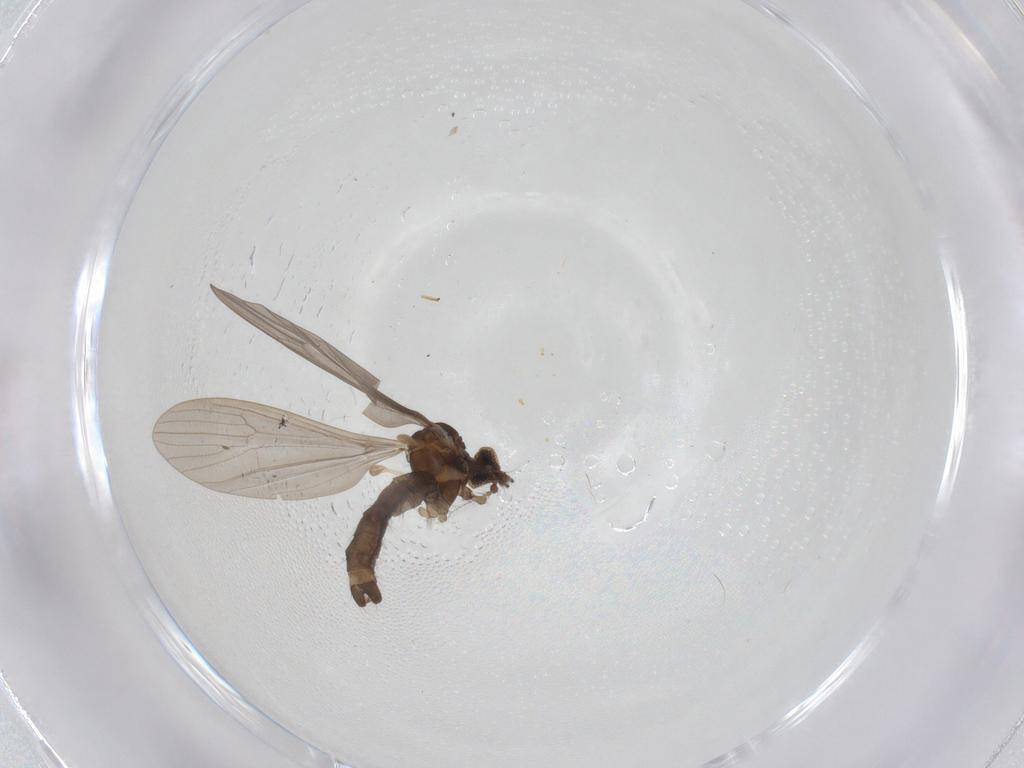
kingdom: Animalia
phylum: Arthropoda
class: Insecta
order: Diptera
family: Limoniidae
